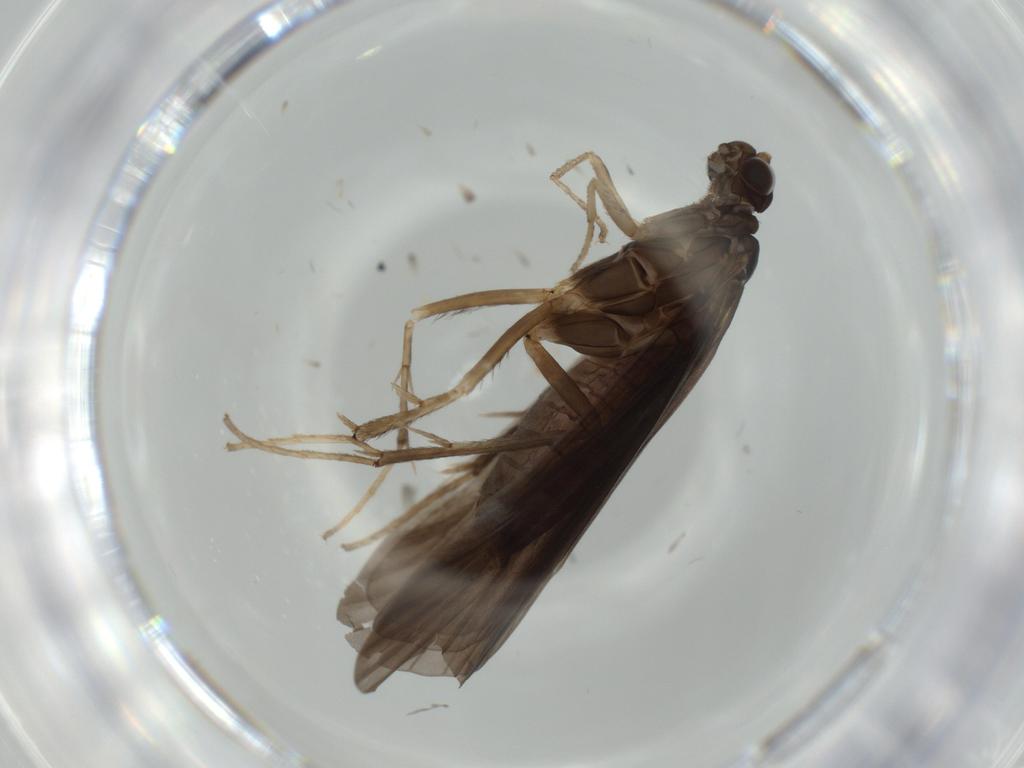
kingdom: Animalia
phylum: Arthropoda
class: Insecta
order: Trichoptera
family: Hydropsychidae
